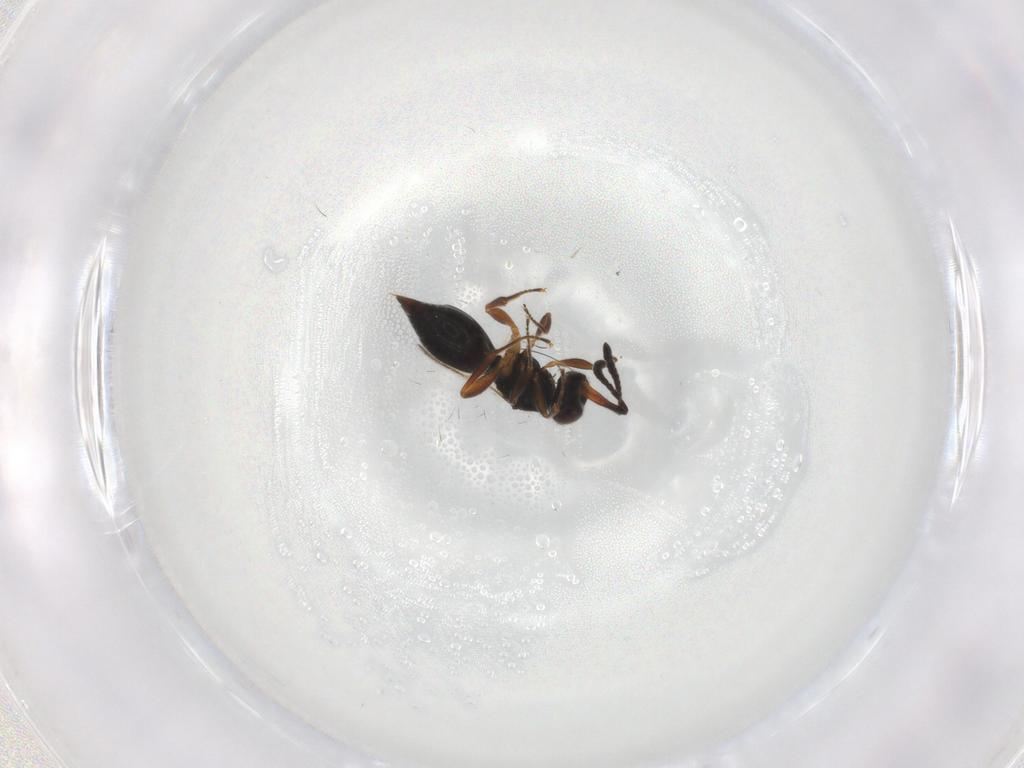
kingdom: Animalia
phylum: Arthropoda
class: Insecta
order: Hymenoptera
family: Ceraphronidae
